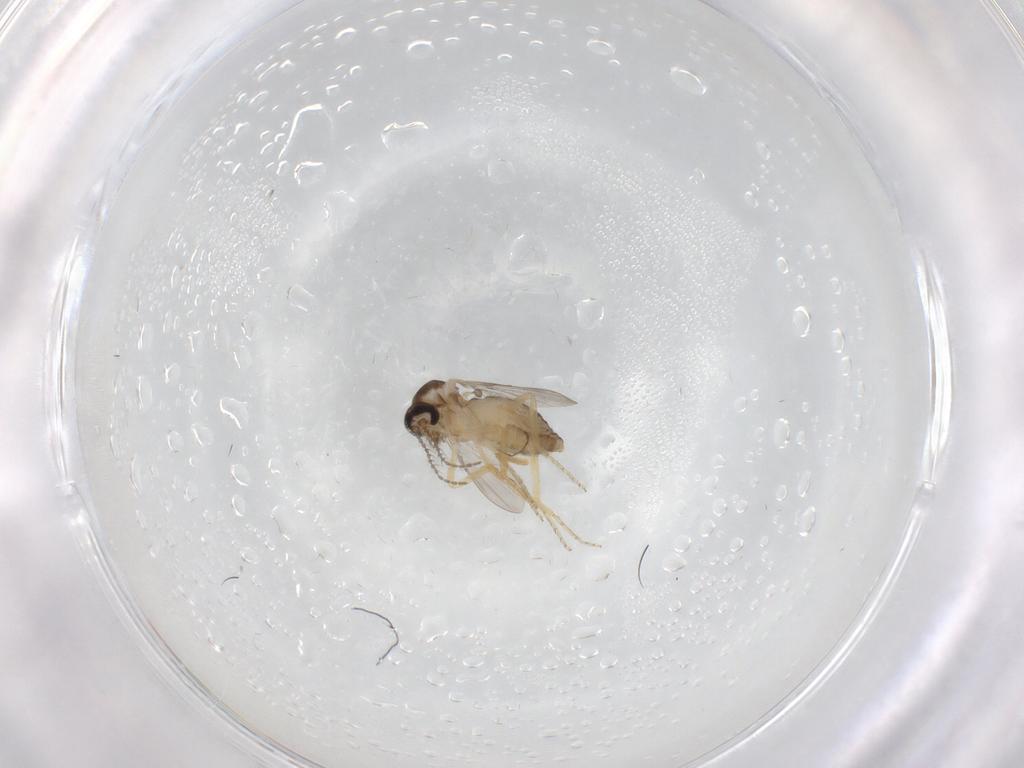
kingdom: Animalia
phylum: Arthropoda
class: Insecta
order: Diptera
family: Ceratopogonidae
